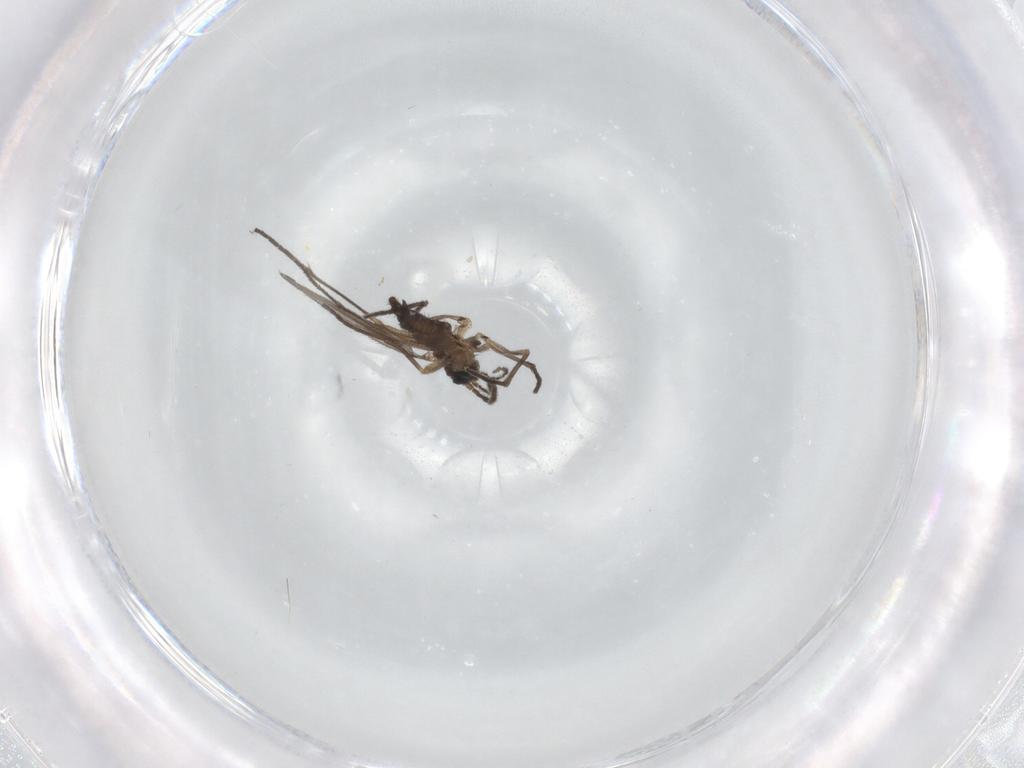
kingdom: Animalia
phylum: Arthropoda
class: Insecta
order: Diptera
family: Sciaridae
